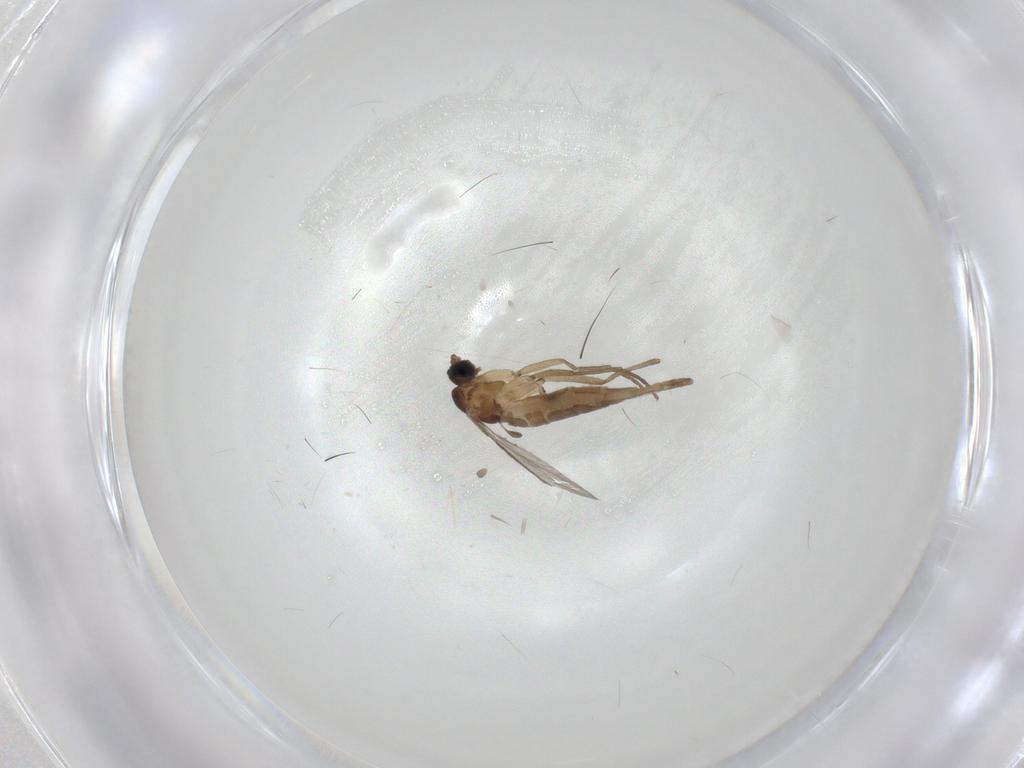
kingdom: Animalia
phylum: Arthropoda
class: Insecta
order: Diptera
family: Sciaridae
